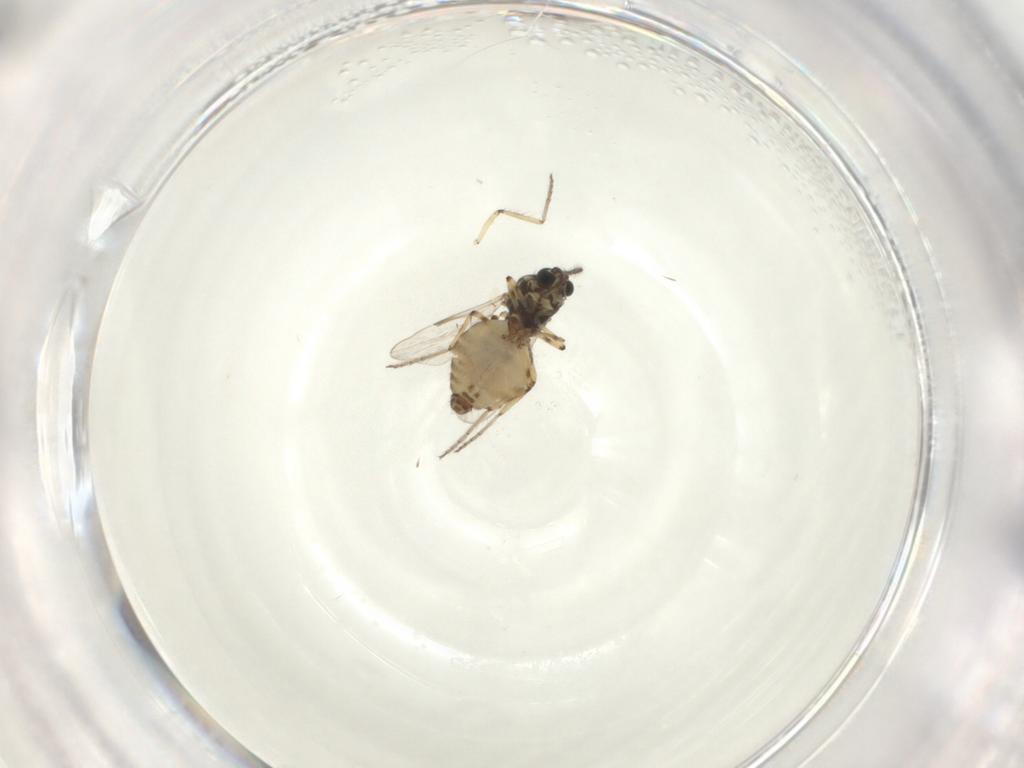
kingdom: Animalia
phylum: Arthropoda
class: Insecta
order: Diptera
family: Ceratopogonidae
